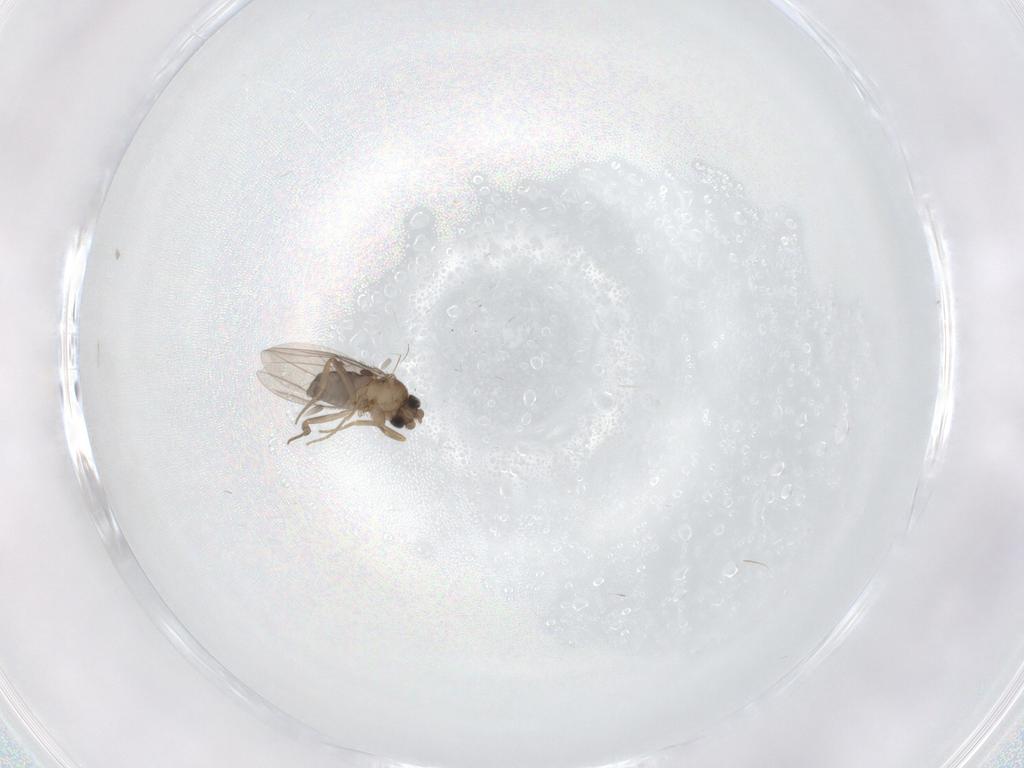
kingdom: Animalia
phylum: Arthropoda
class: Insecta
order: Diptera
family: Phoridae
